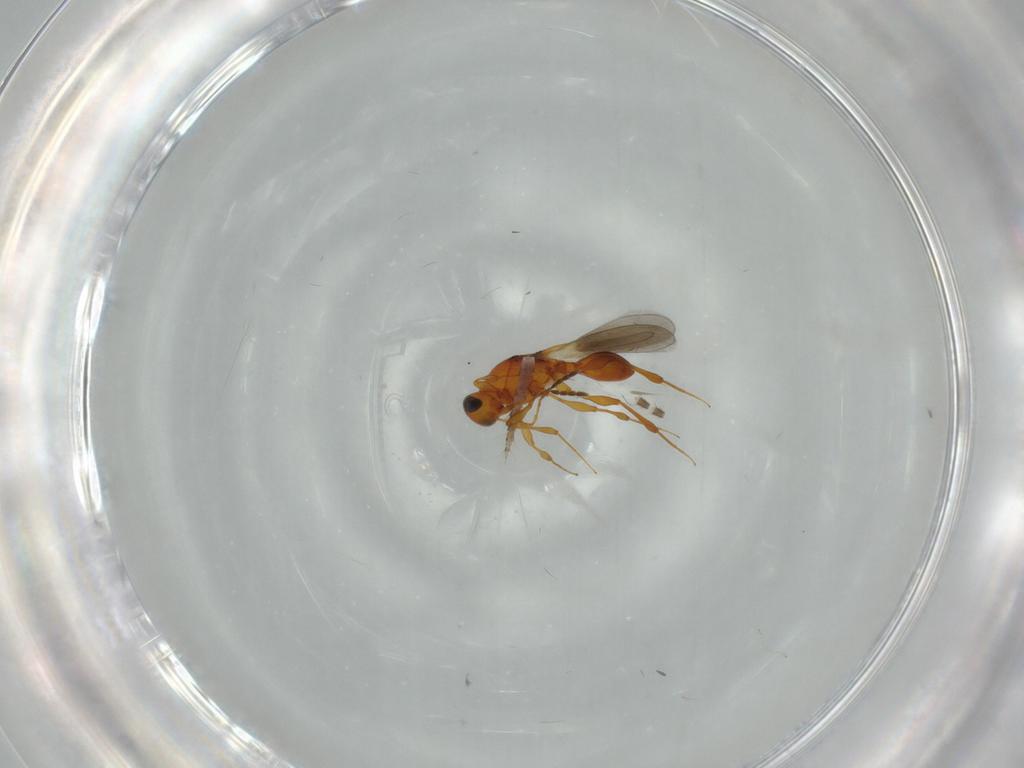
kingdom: Animalia
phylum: Arthropoda
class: Insecta
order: Hymenoptera
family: Platygastridae
